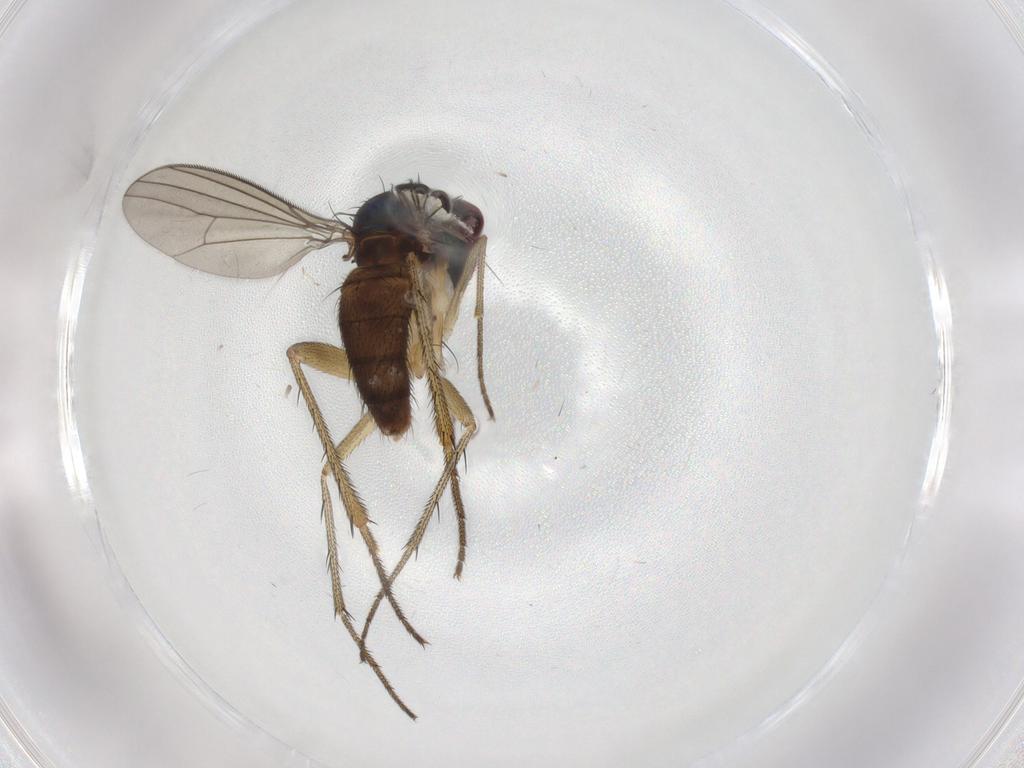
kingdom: Animalia
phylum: Arthropoda
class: Insecta
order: Diptera
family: Dolichopodidae
